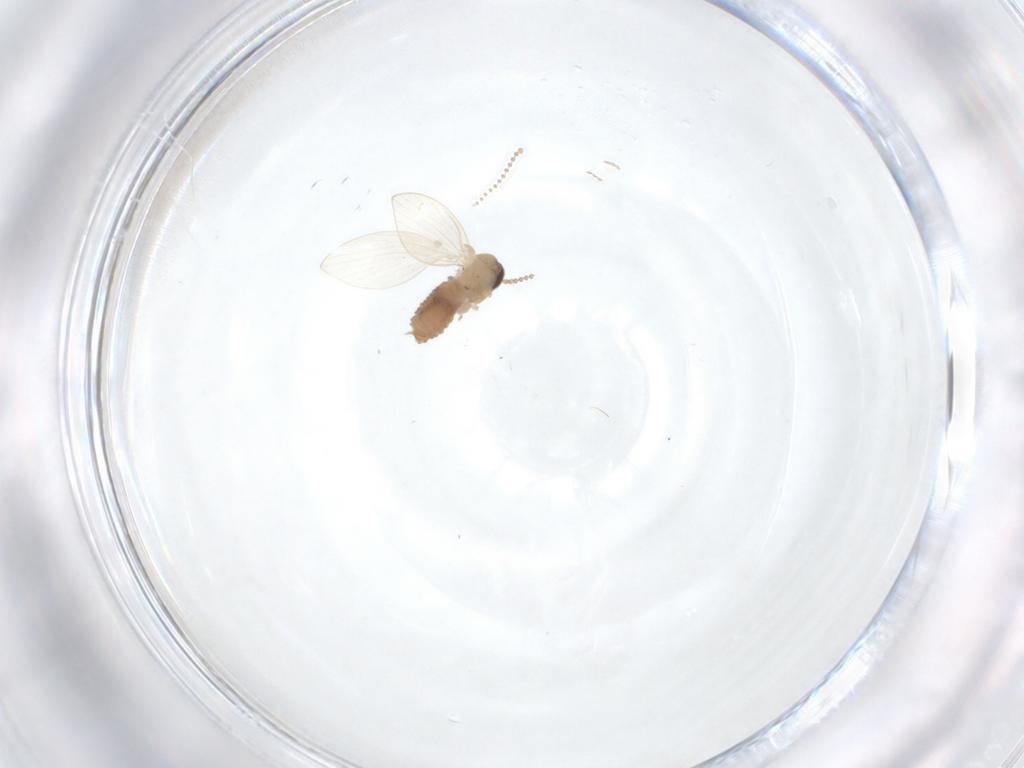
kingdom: Animalia
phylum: Arthropoda
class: Insecta
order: Diptera
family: Psychodidae
